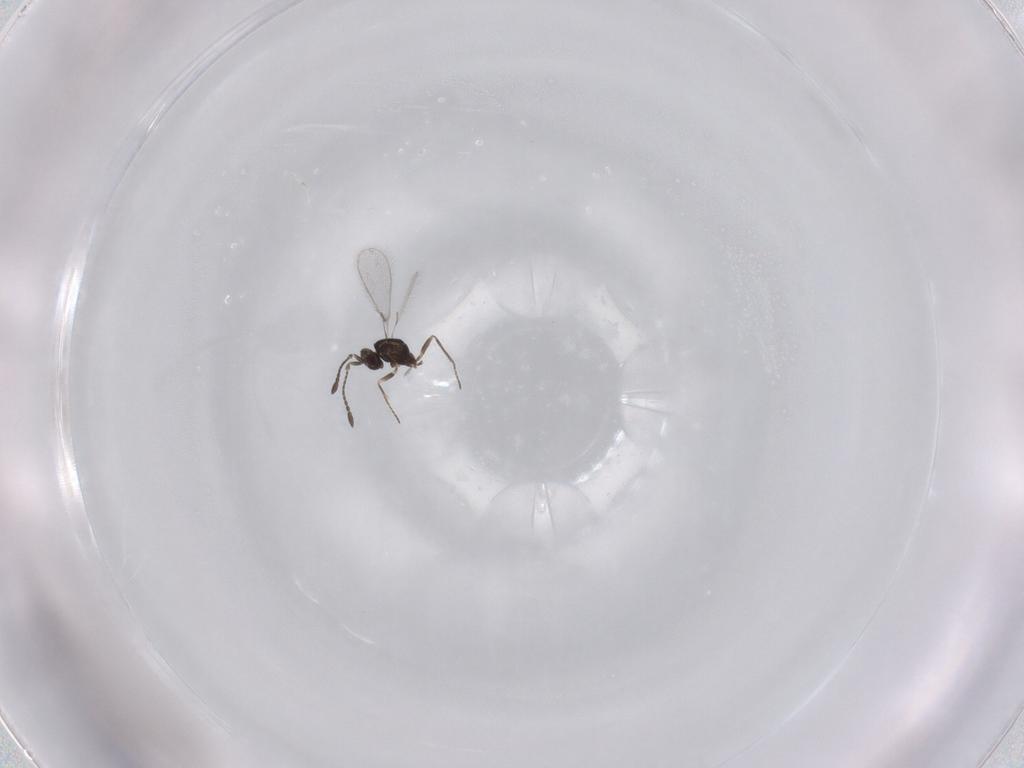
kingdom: Animalia
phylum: Arthropoda
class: Insecta
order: Hymenoptera
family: Mymaridae
